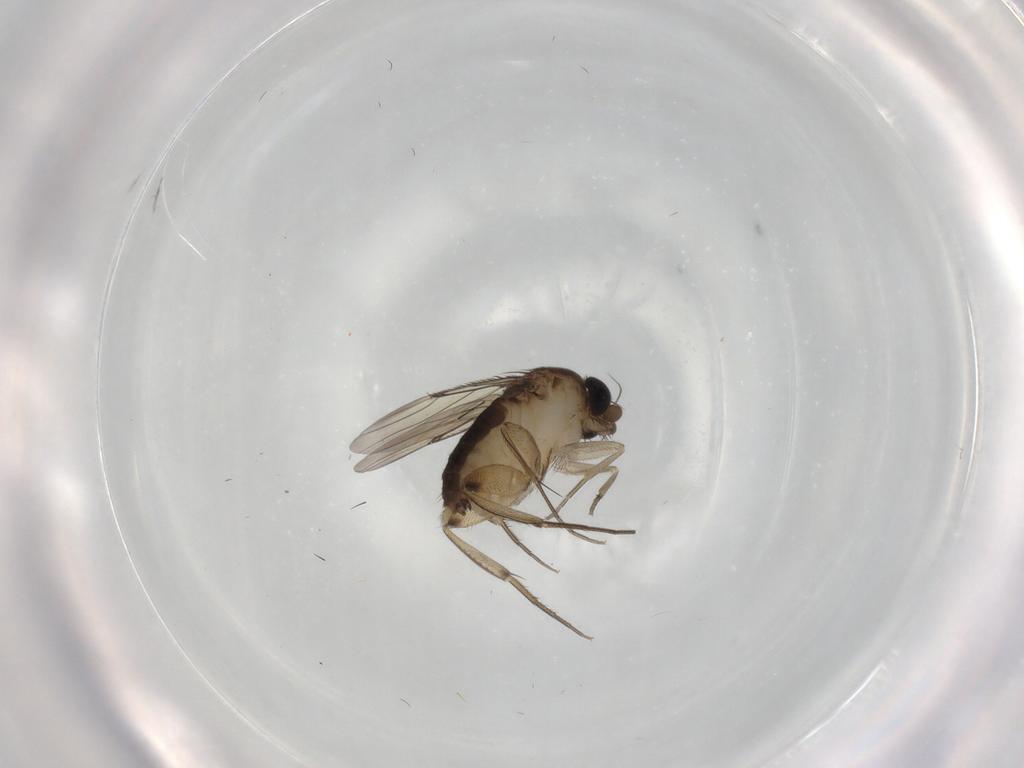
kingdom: Animalia
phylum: Arthropoda
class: Insecta
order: Diptera
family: Phoridae
